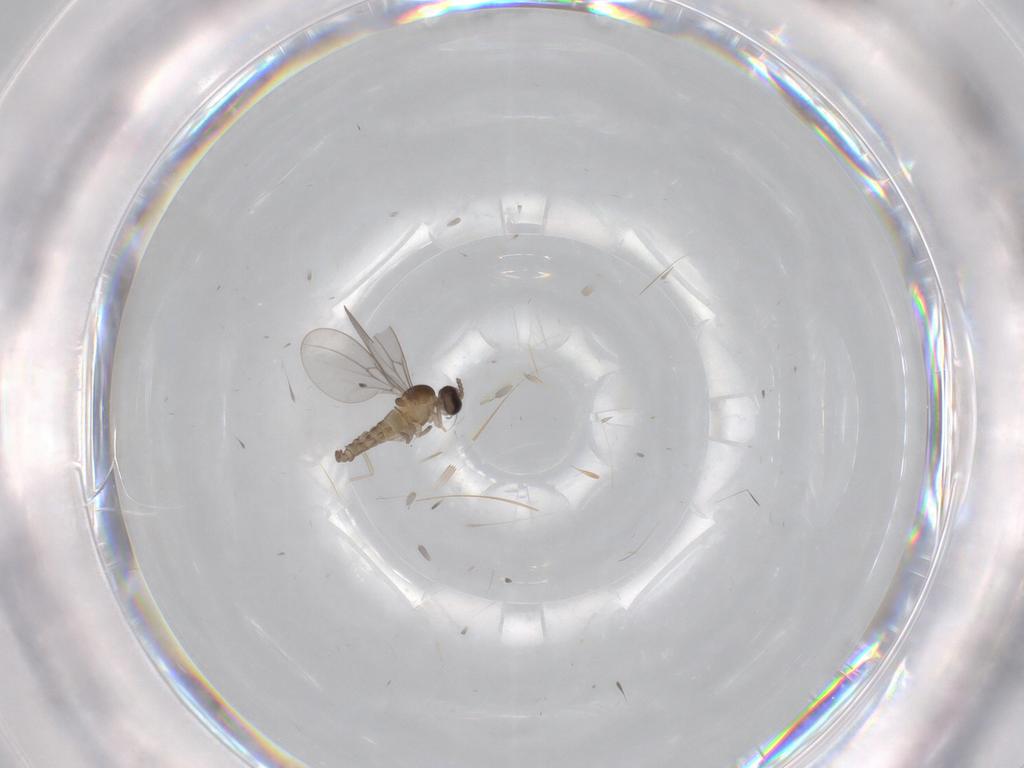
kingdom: Animalia
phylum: Arthropoda
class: Insecta
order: Diptera
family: Cecidomyiidae
